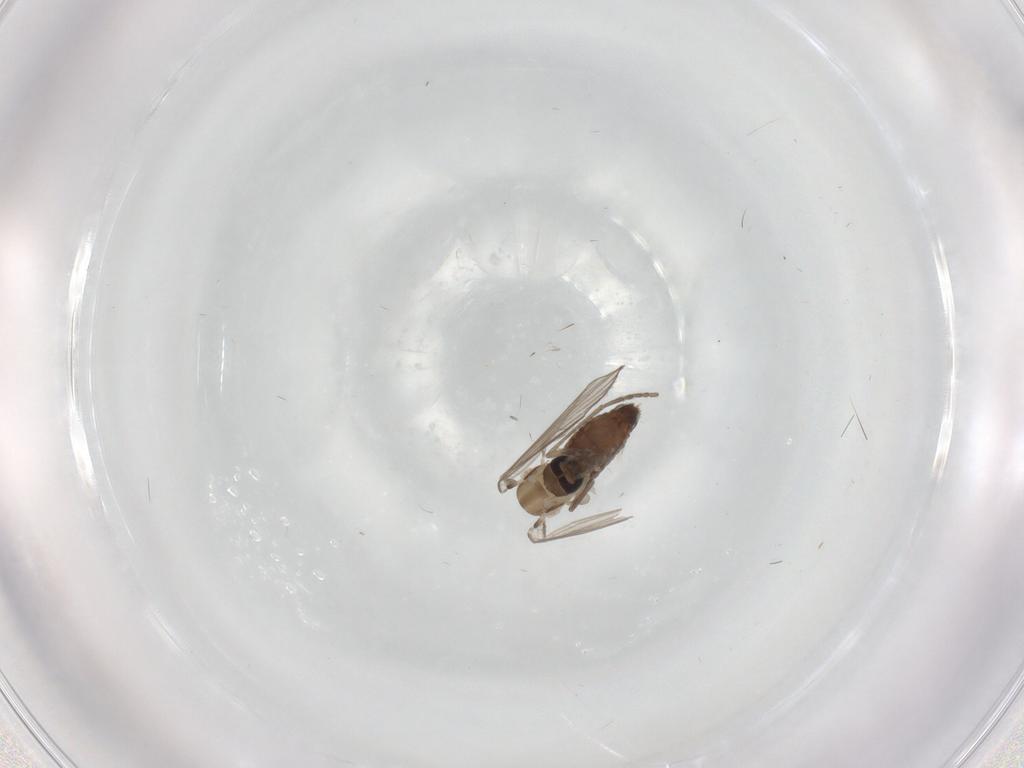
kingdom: Animalia
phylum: Arthropoda
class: Insecta
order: Diptera
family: Psychodidae
